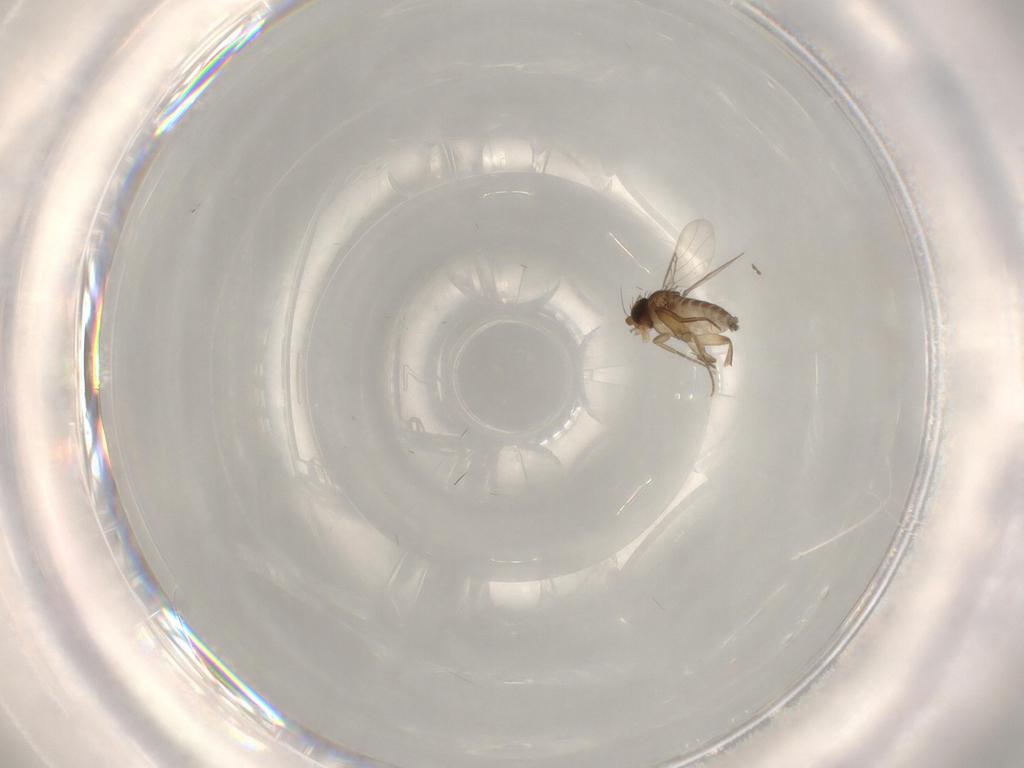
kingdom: Animalia
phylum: Arthropoda
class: Insecta
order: Diptera
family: Phoridae
